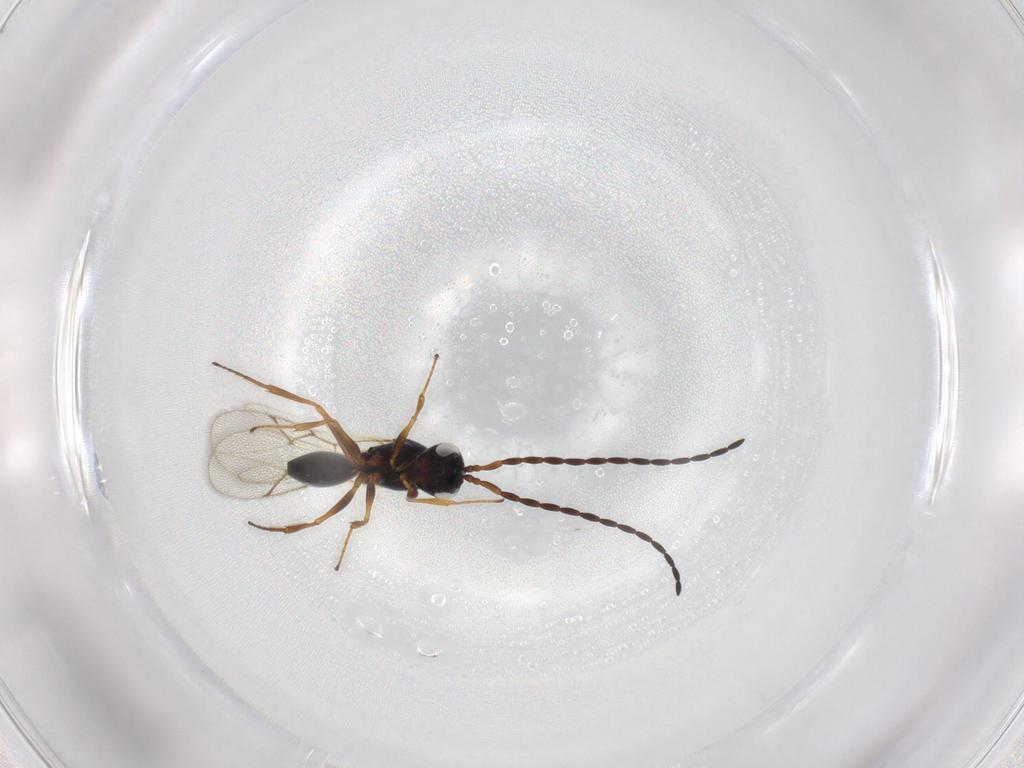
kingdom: Animalia
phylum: Arthropoda
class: Insecta
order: Hymenoptera
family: Figitidae
